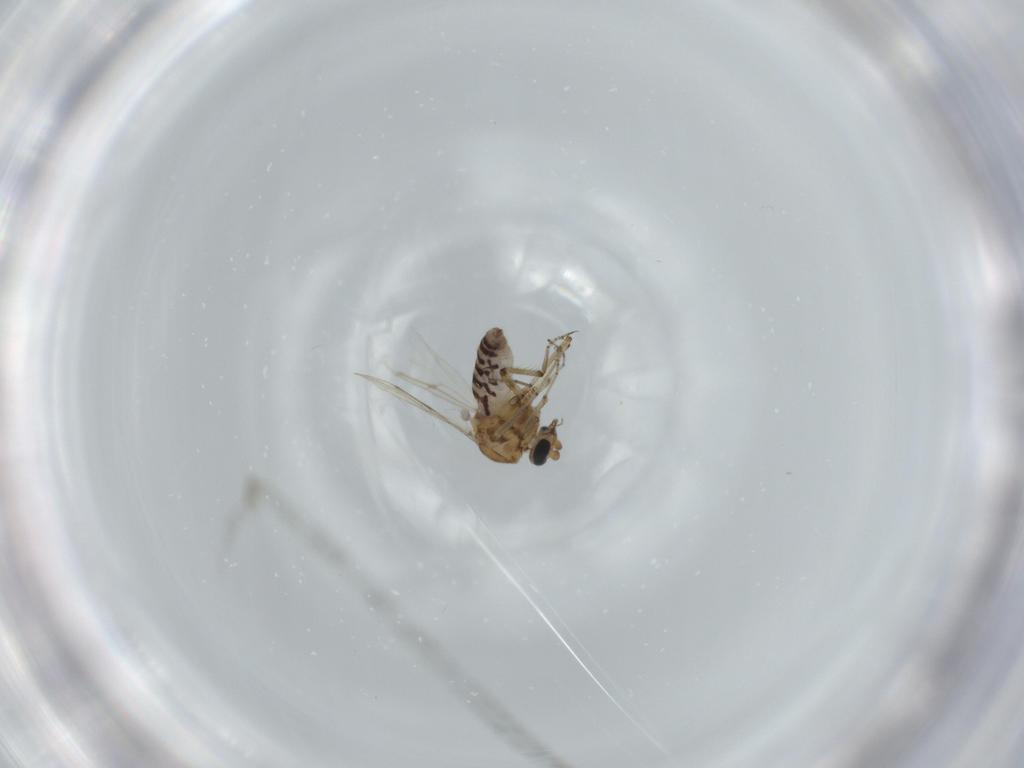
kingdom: Animalia
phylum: Arthropoda
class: Insecta
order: Diptera
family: Ceratopogonidae
